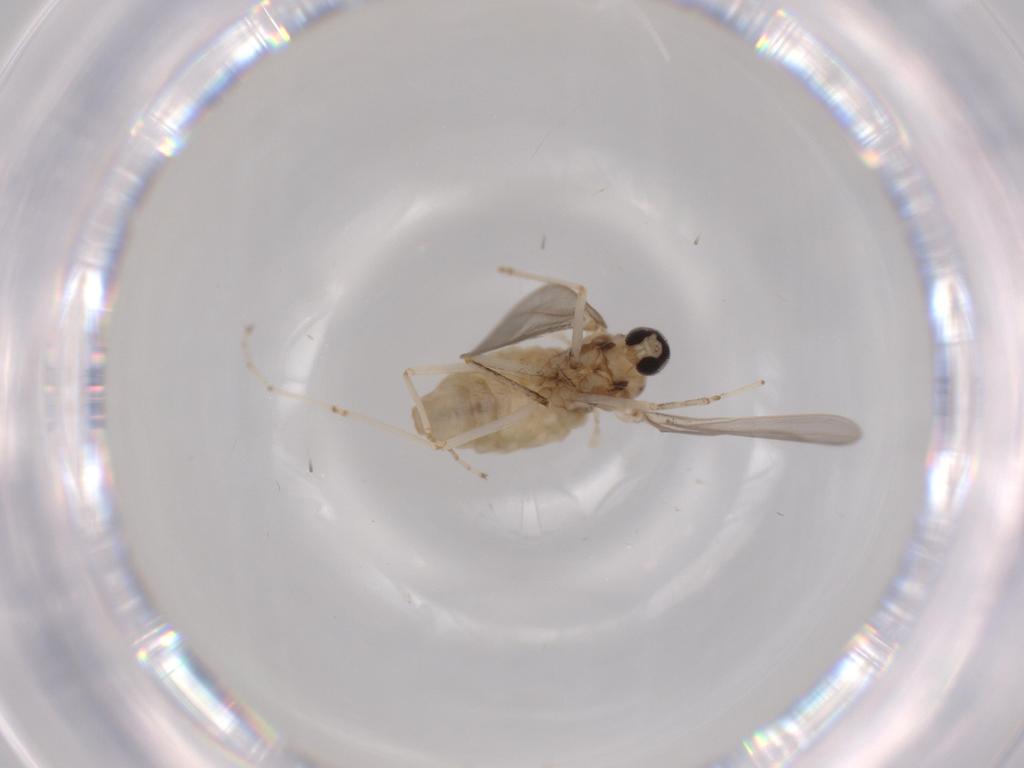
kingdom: Animalia
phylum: Arthropoda
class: Insecta
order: Diptera
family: Cecidomyiidae
